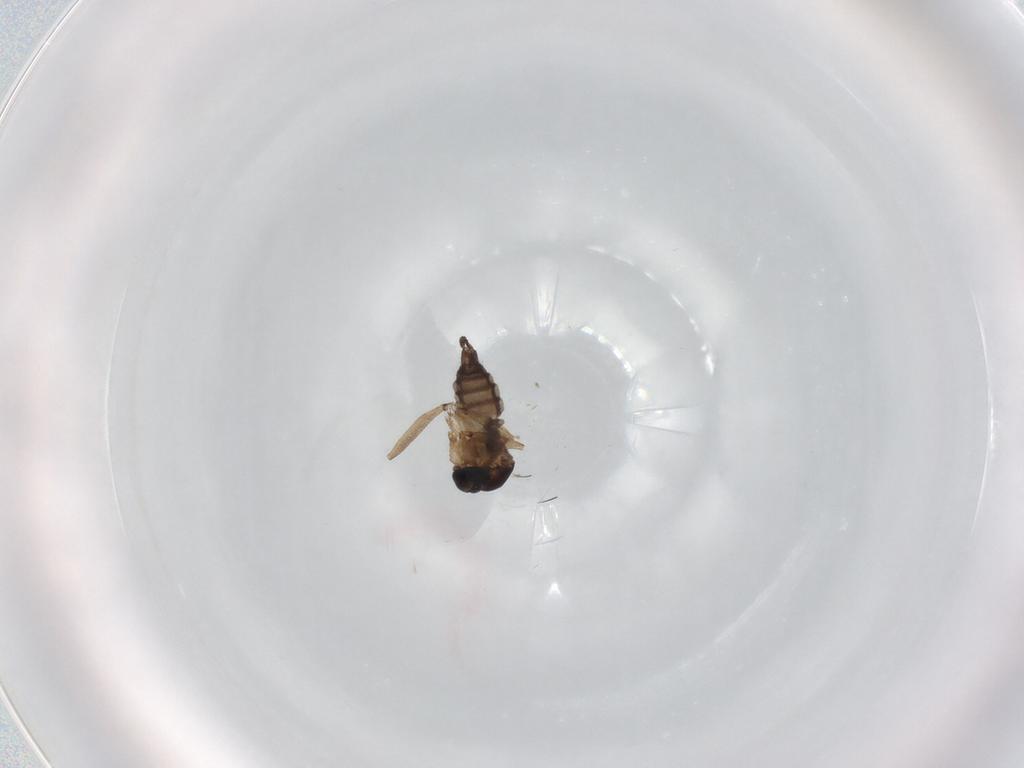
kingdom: Animalia
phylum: Arthropoda
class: Insecta
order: Diptera
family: Sciaridae
